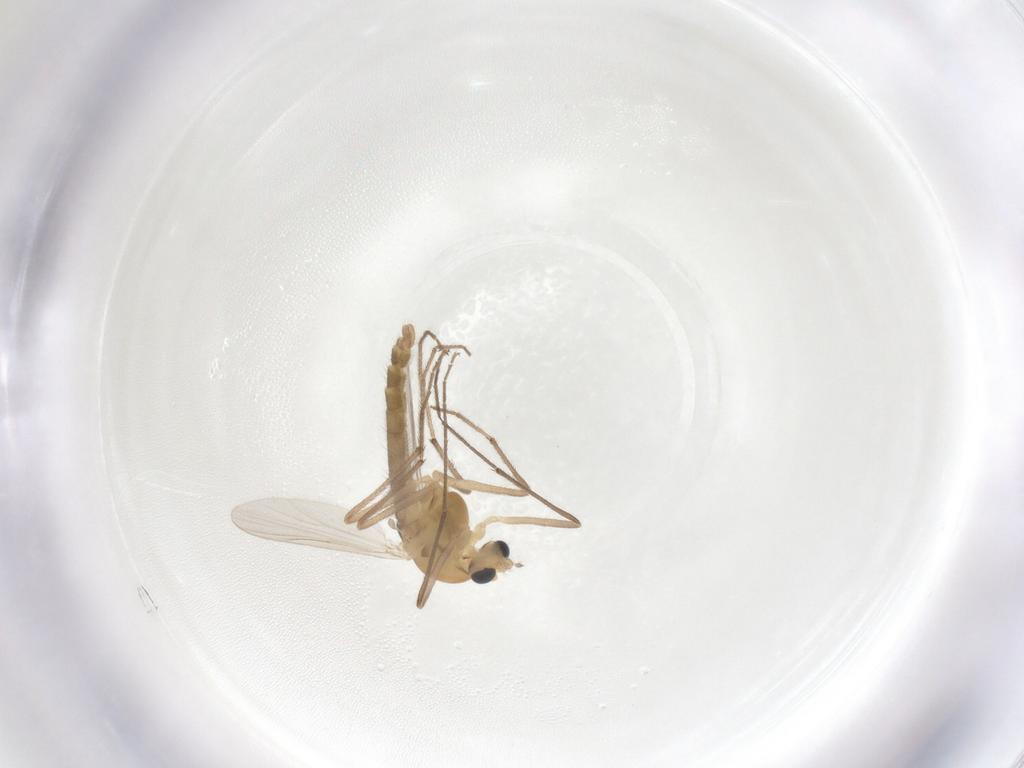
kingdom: Animalia
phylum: Arthropoda
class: Insecta
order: Diptera
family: Chironomidae
